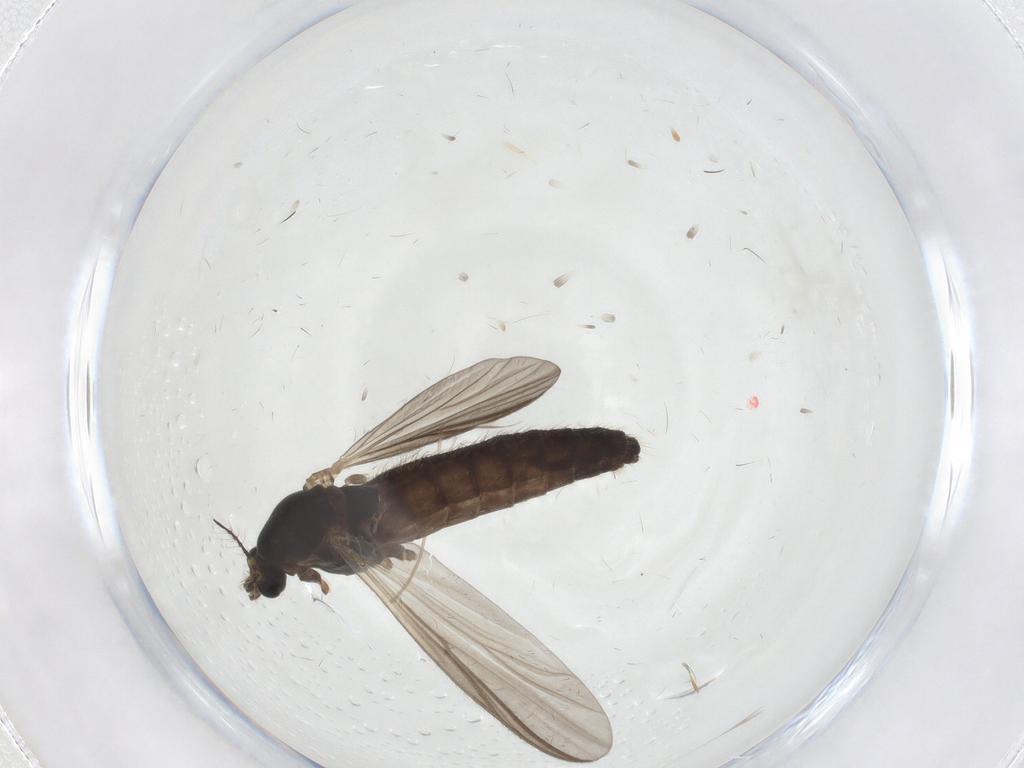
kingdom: Animalia
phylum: Arthropoda
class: Insecta
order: Diptera
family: Chironomidae
